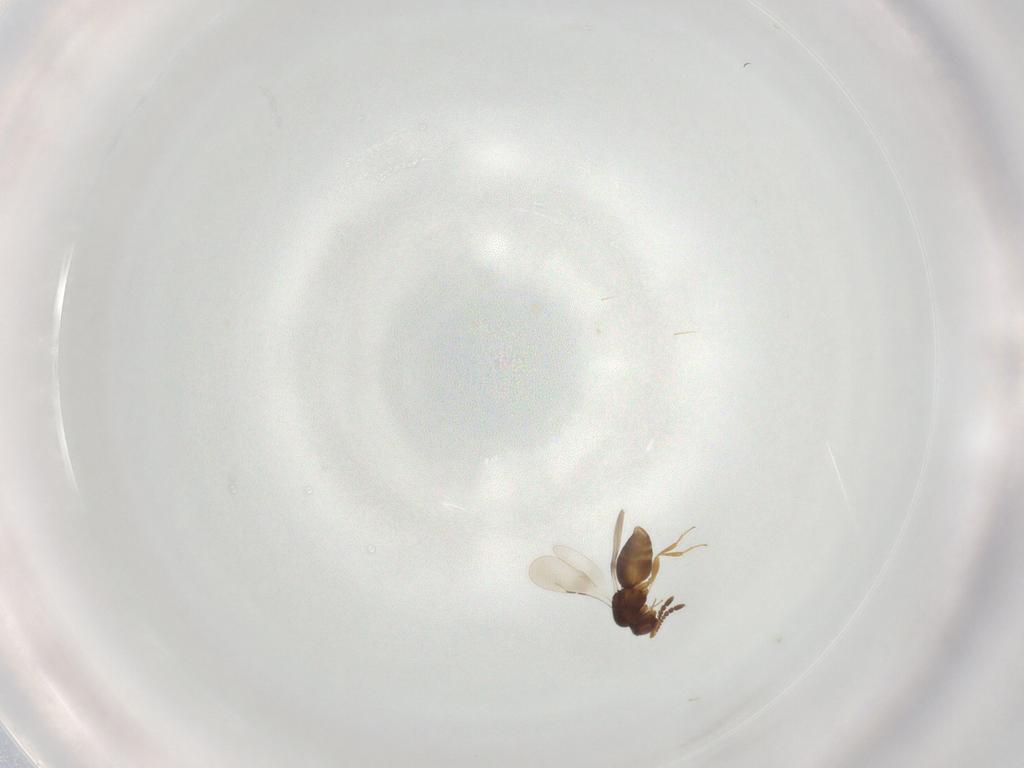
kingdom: Animalia
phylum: Arthropoda
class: Insecta
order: Hymenoptera
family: Ceraphronidae
